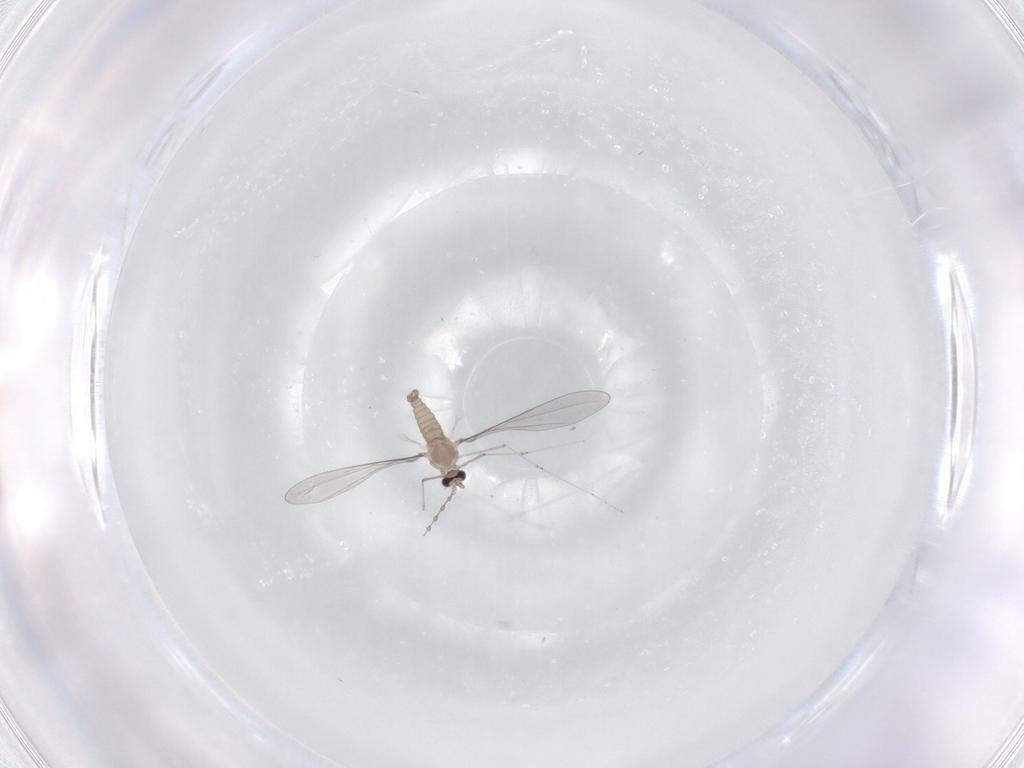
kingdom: Animalia
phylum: Arthropoda
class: Insecta
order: Diptera
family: Cecidomyiidae
